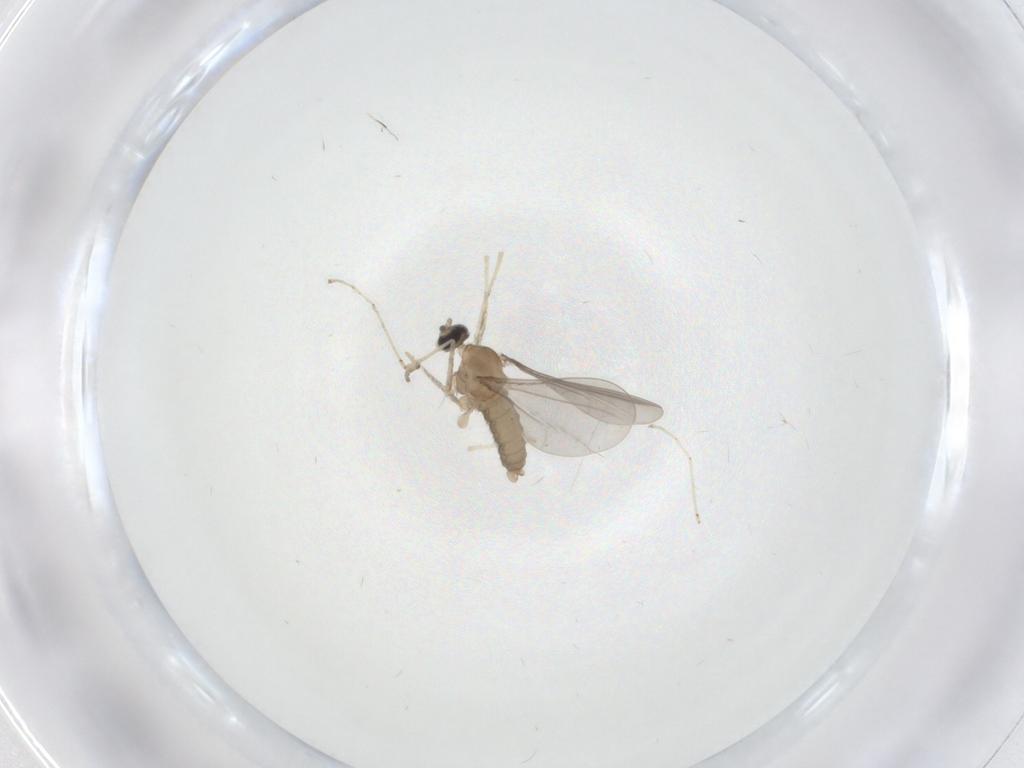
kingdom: Animalia
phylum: Arthropoda
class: Insecta
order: Diptera
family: Cecidomyiidae
